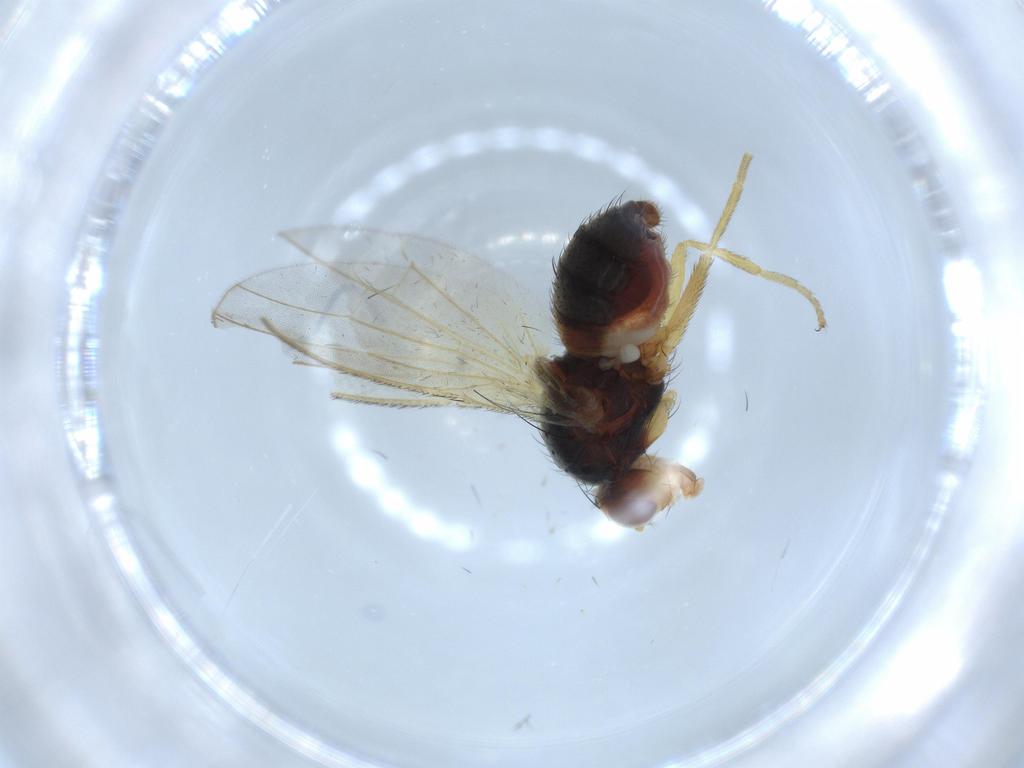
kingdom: Animalia
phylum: Arthropoda
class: Insecta
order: Diptera
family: Heleomyzidae
